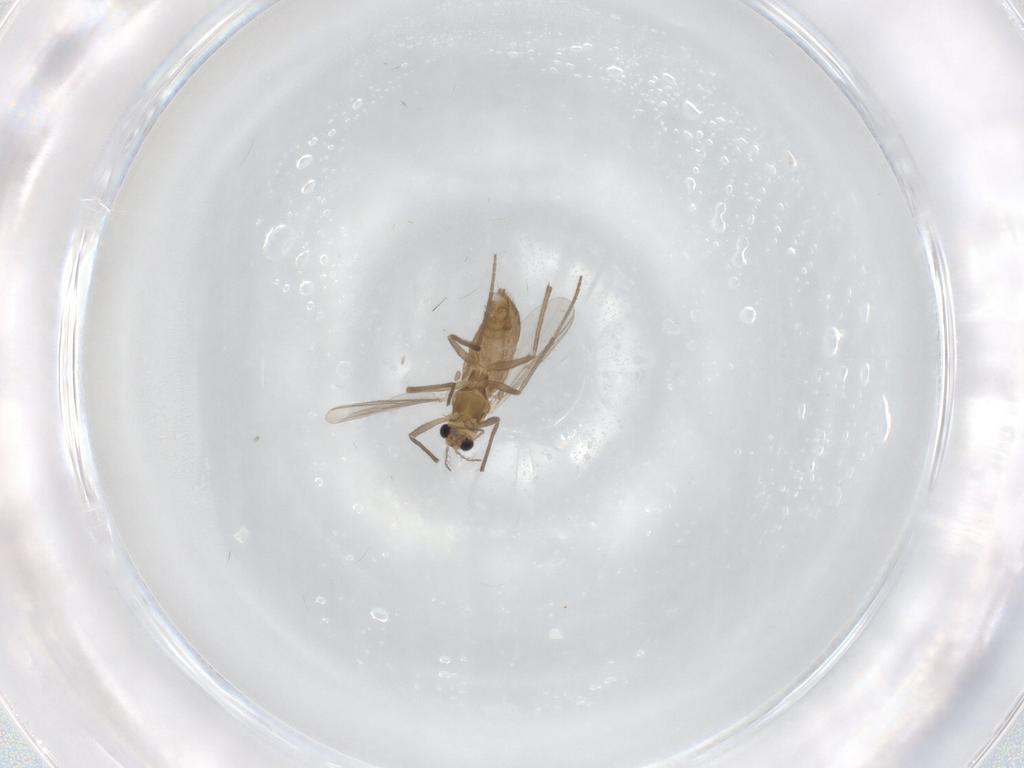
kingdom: Animalia
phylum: Arthropoda
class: Insecta
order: Diptera
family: Chironomidae
